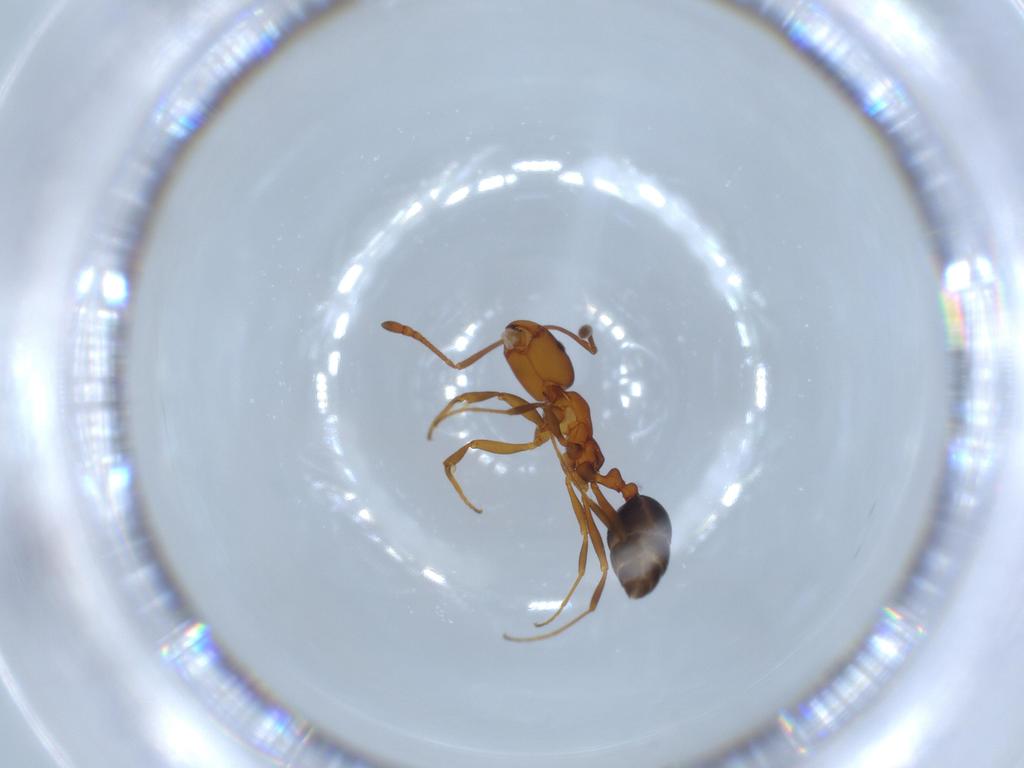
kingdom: Animalia
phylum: Arthropoda
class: Insecta
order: Hymenoptera
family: Formicidae
